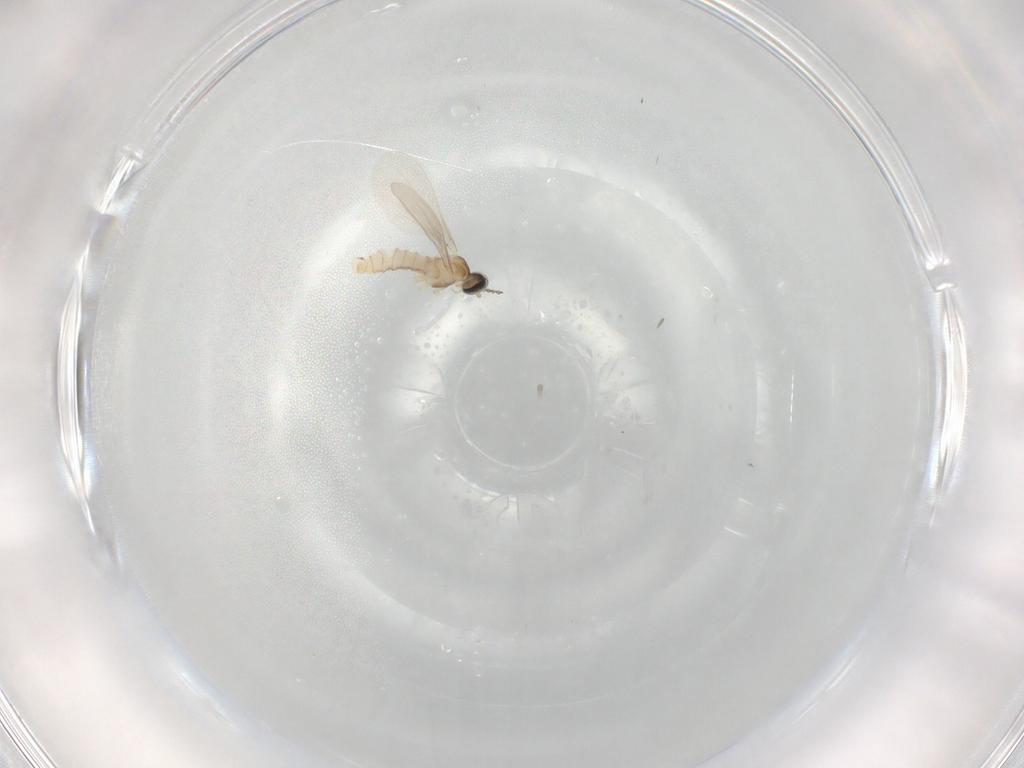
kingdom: Animalia
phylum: Arthropoda
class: Insecta
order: Diptera
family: Cecidomyiidae
